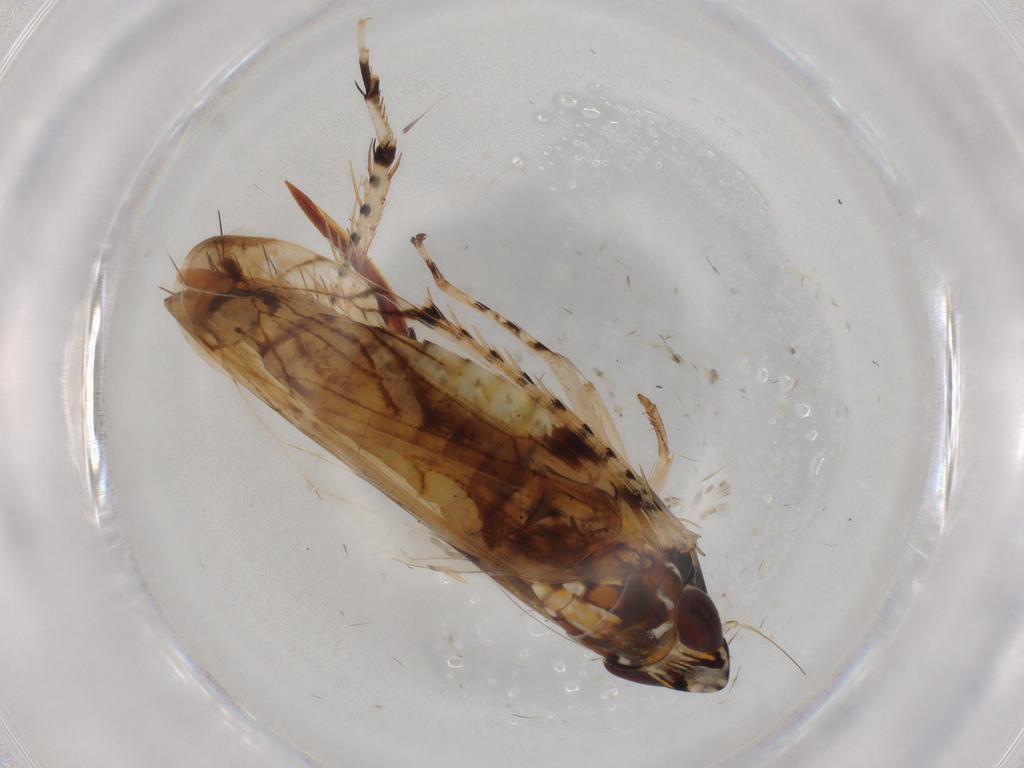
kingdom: Animalia
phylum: Arthropoda
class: Insecta
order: Hemiptera
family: Cicadellidae
